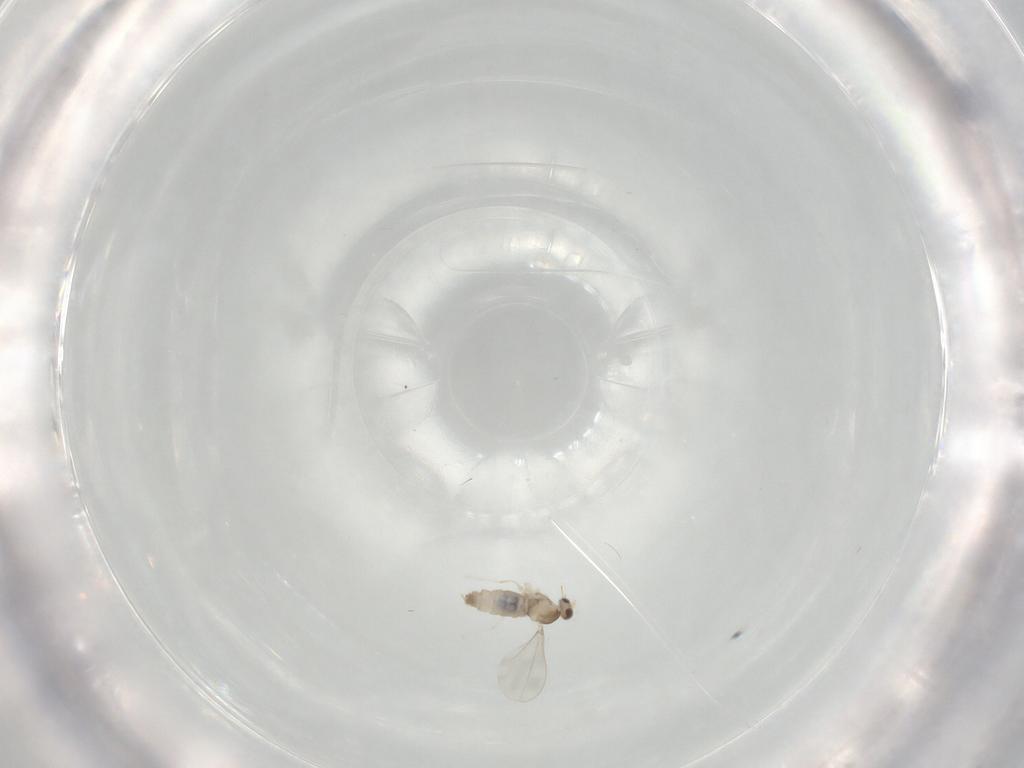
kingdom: Animalia
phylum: Arthropoda
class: Insecta
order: Diptera
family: Cecidomyiidae
